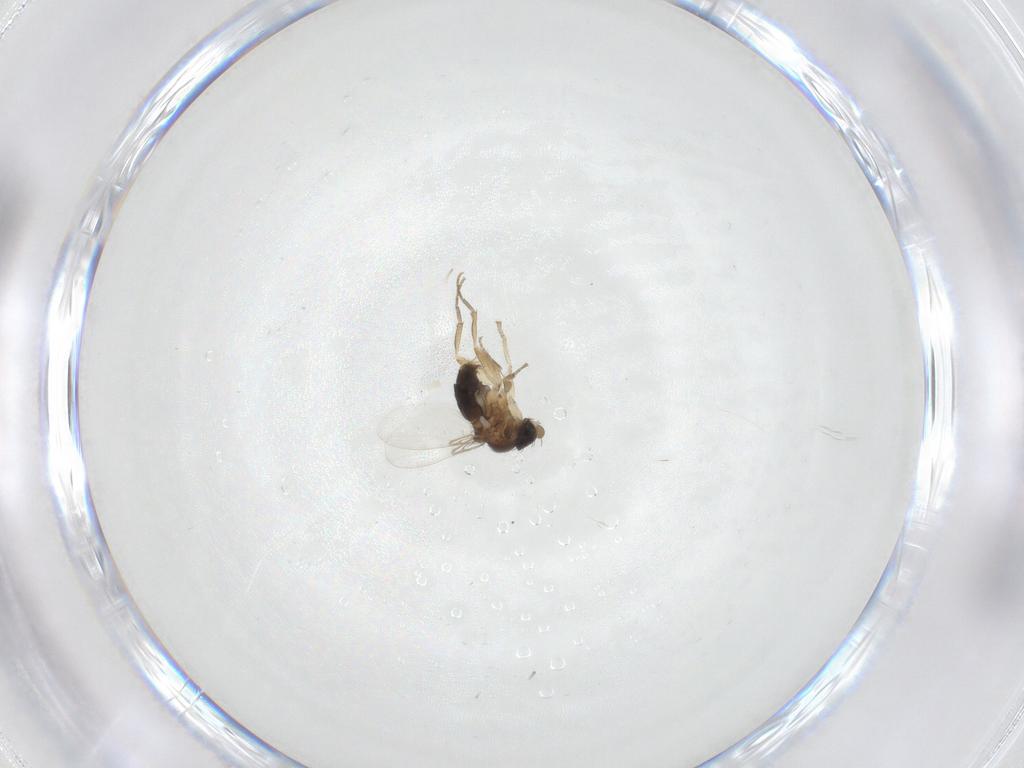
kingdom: Animalia
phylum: Arthropoda
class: Insecta
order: Diptera
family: Phoridae
